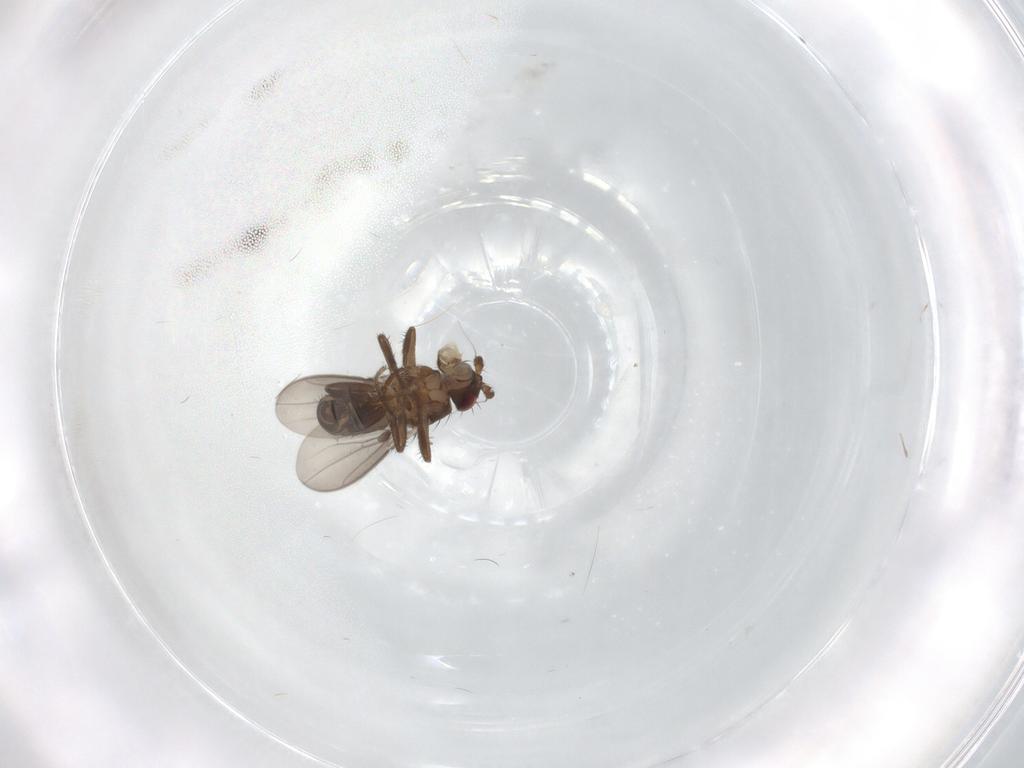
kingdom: Animalia
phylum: Arthropoda
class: Insecta
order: Diptera
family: Sphaeroceridae
